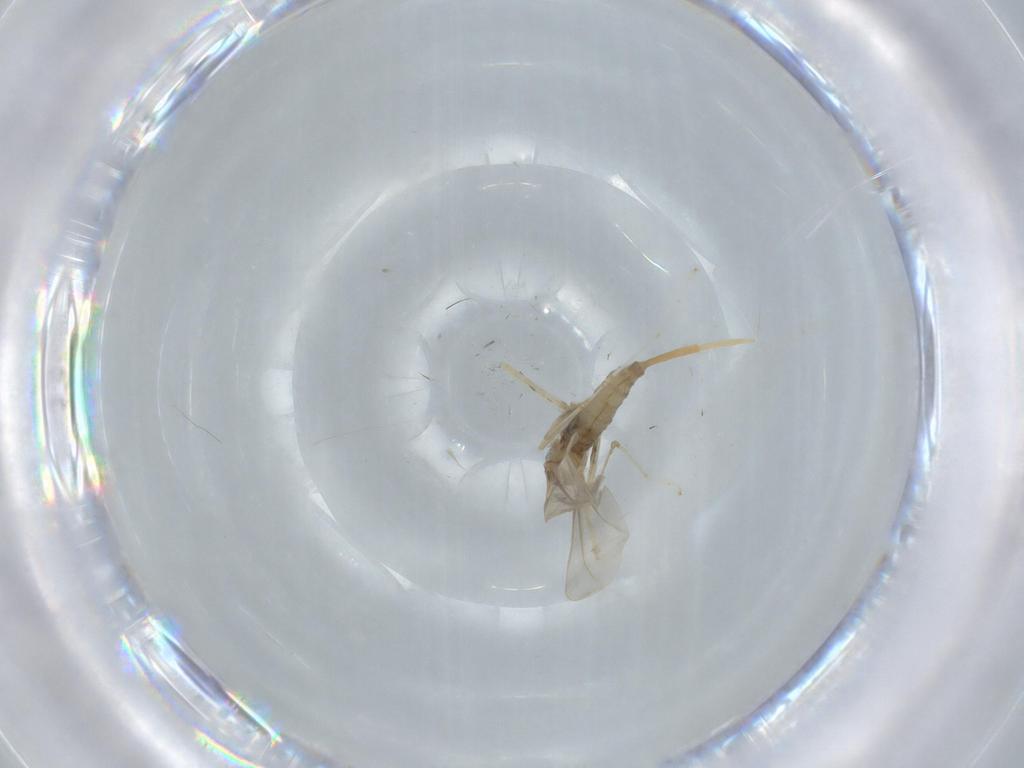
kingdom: Animalia
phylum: Arthropoda
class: Insecta
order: Diptera
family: Cecidomyiidae
